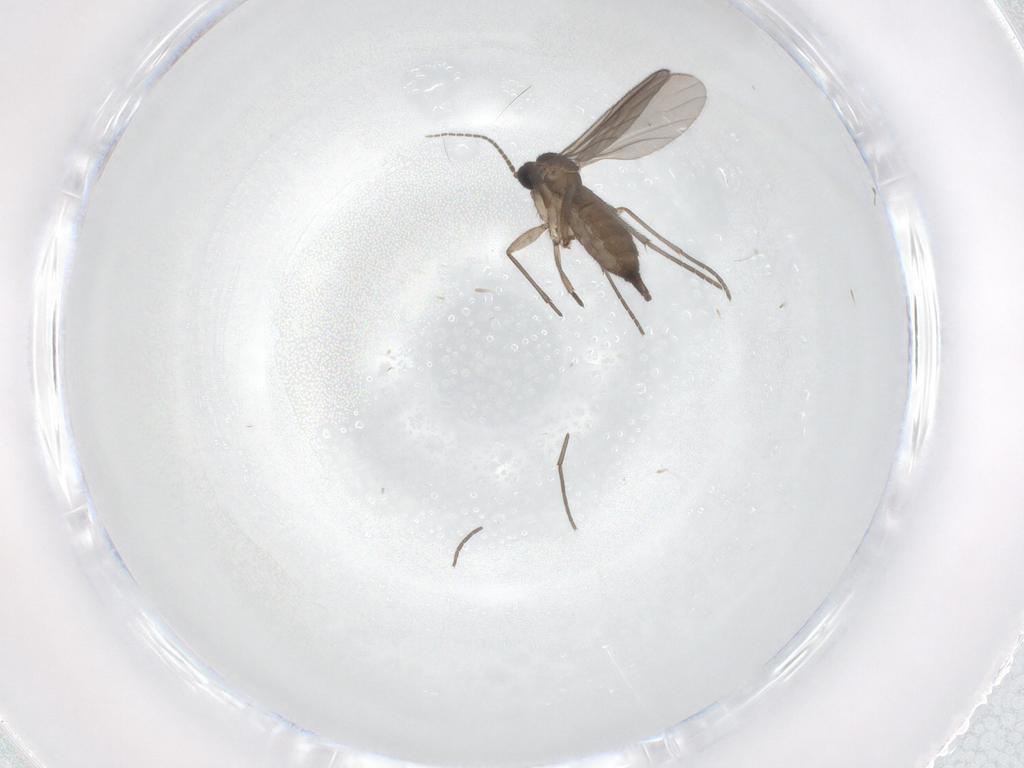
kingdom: Animalia
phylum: Arthropoda
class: Insecta
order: Diptera
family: Sciaridae
